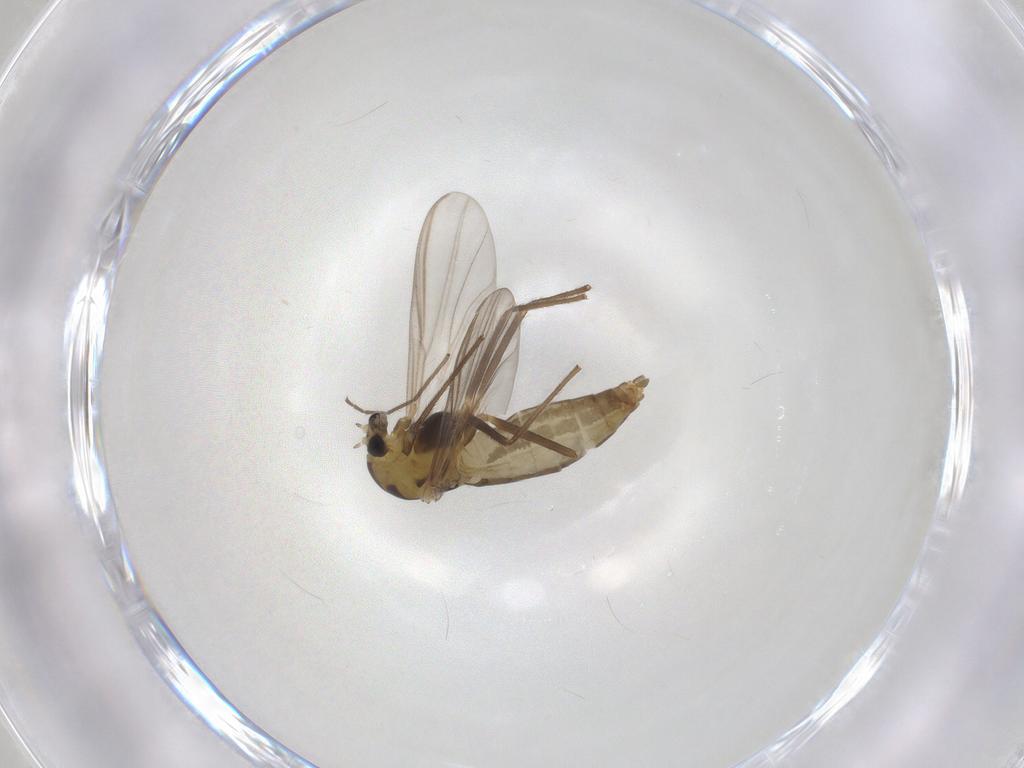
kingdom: Animalia
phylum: Arthropoda
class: Insecta
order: Diptera
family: Chironomidae
